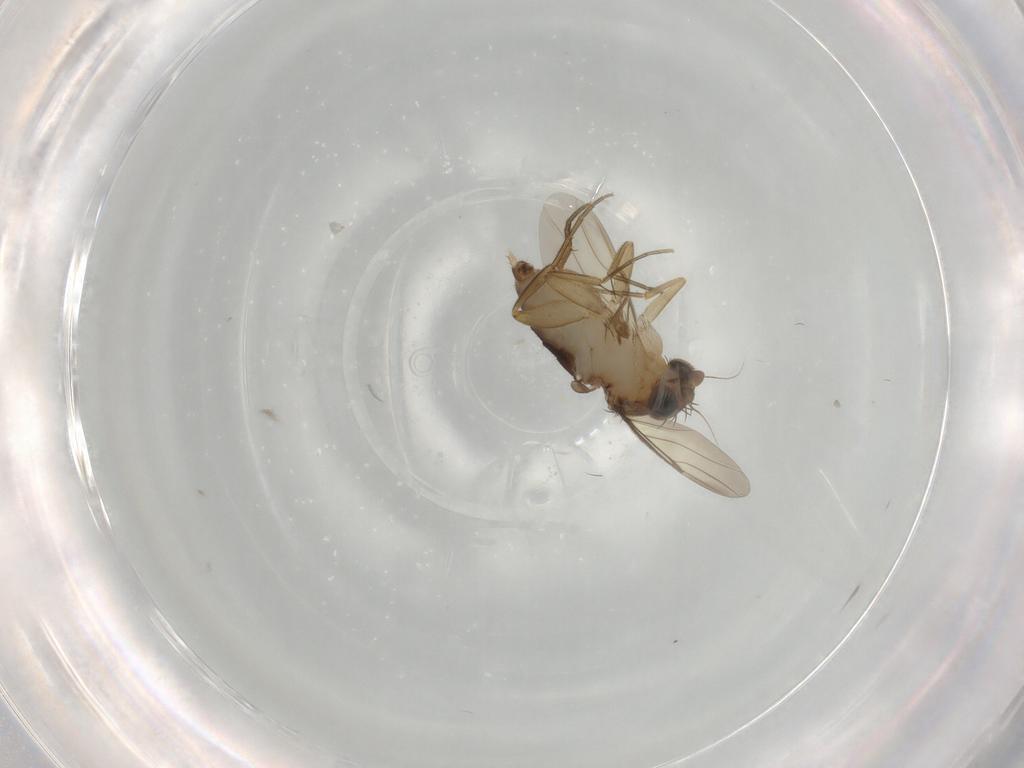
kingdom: Animalia
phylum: Arthropoda
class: Insecta
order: Diptera
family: Phoridae
